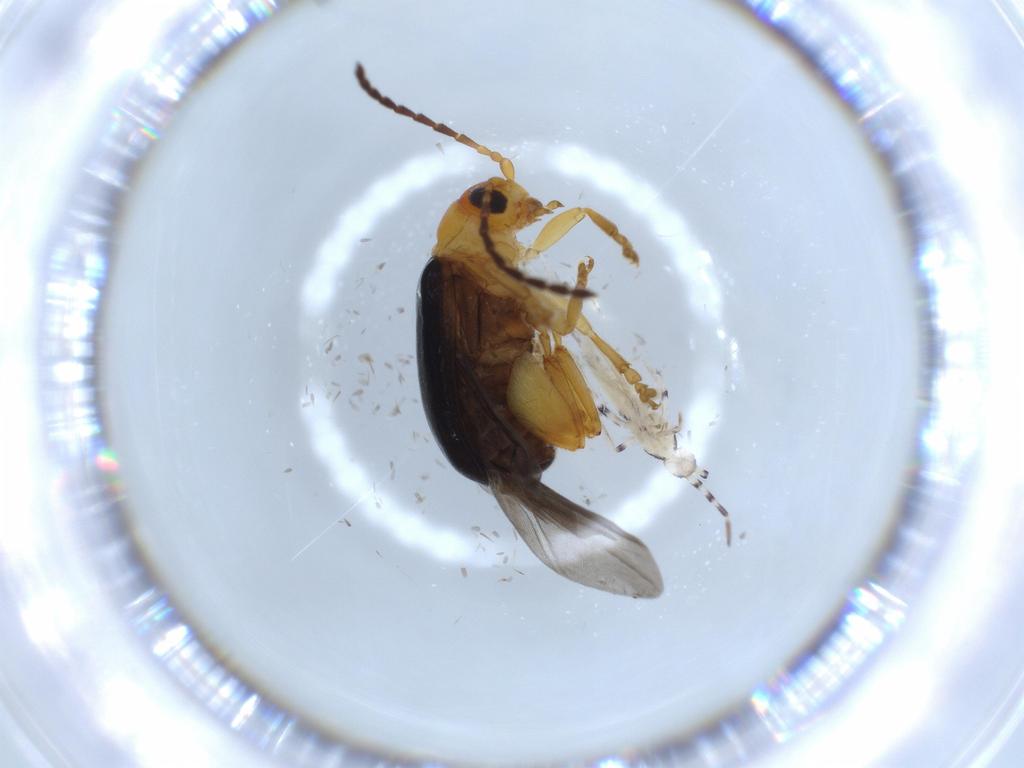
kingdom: Animalia
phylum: Arthropoda
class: Insecta
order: Coleoptera
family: Chrysomelidae
